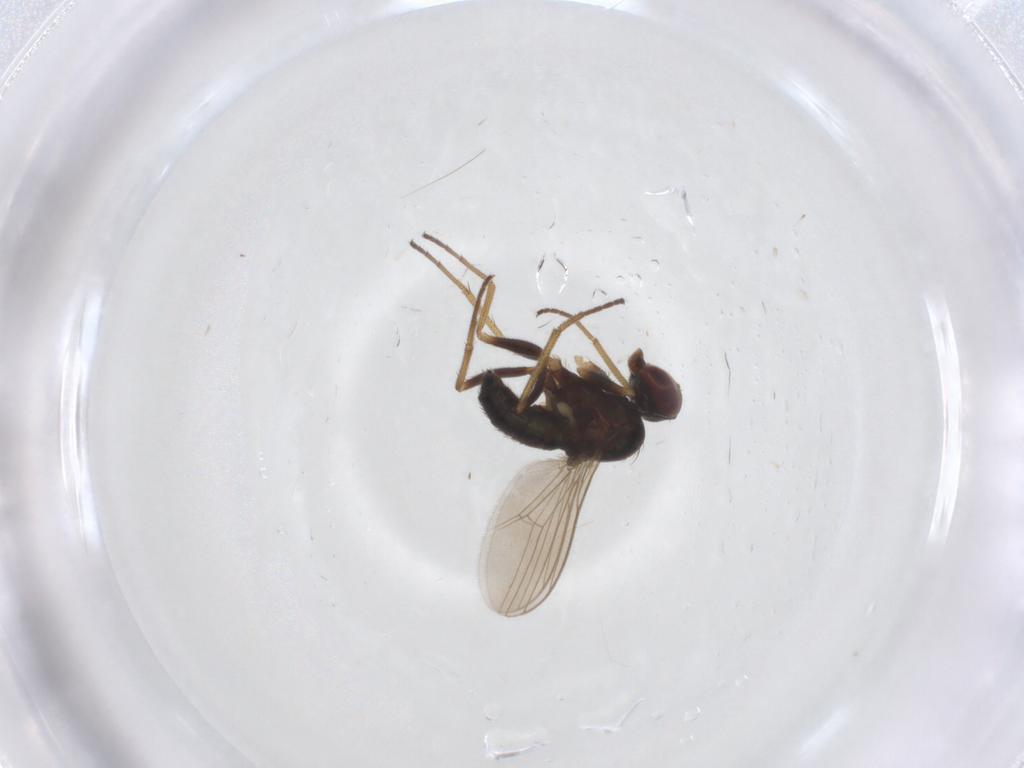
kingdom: Animalia
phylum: Arthropoda
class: Insecta
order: Diptera
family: Dolichopodidae
